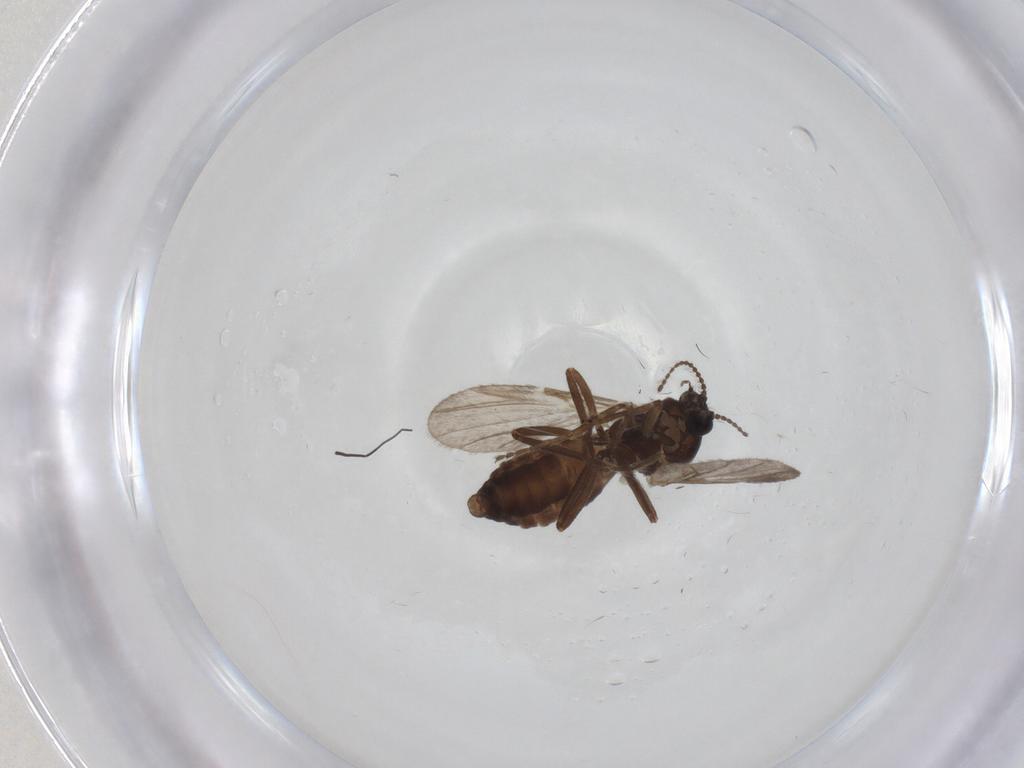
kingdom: Animalia
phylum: Arthropoda
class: Insecta
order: Diptera
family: Ceratopogonidae
